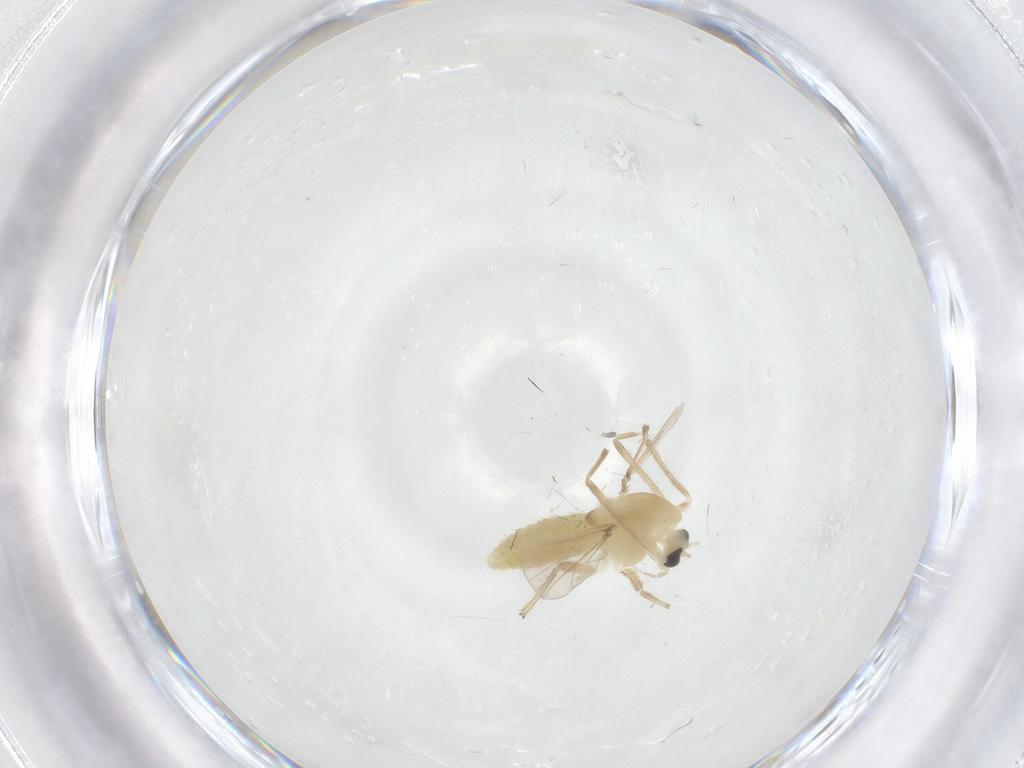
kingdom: Animalia
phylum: Arthropoda
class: Insecta
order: Diptera
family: Chironomidae
